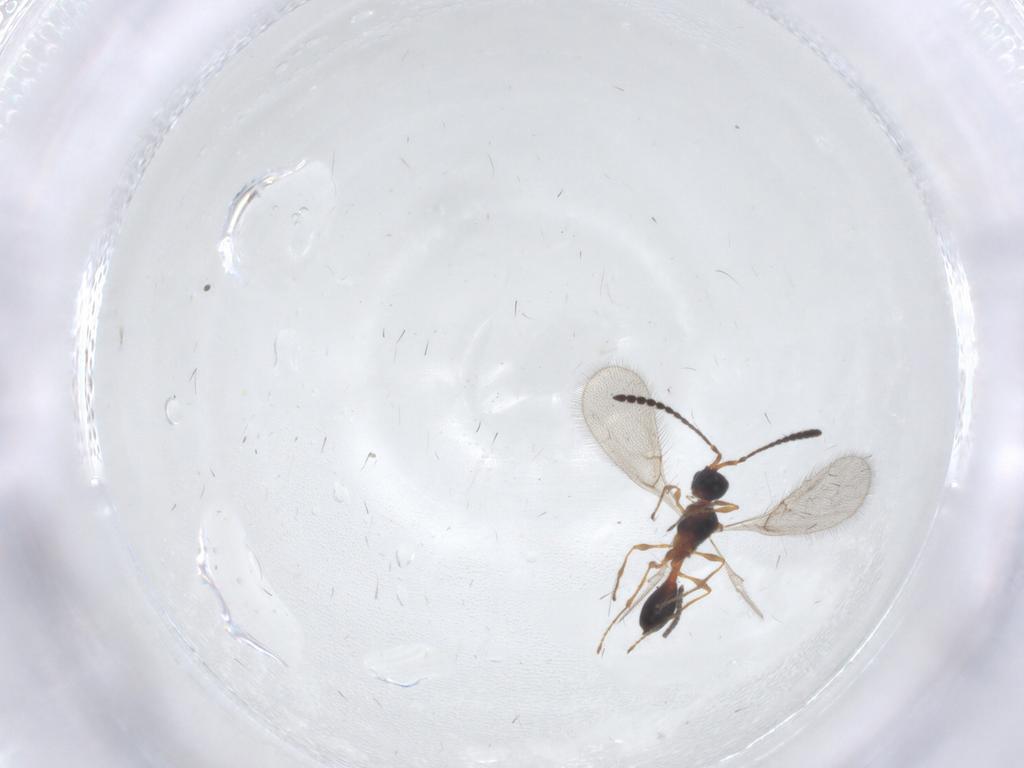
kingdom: Animalia
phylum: Arthropoda
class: Insecta
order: Hymenoptera
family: Diapriidae
